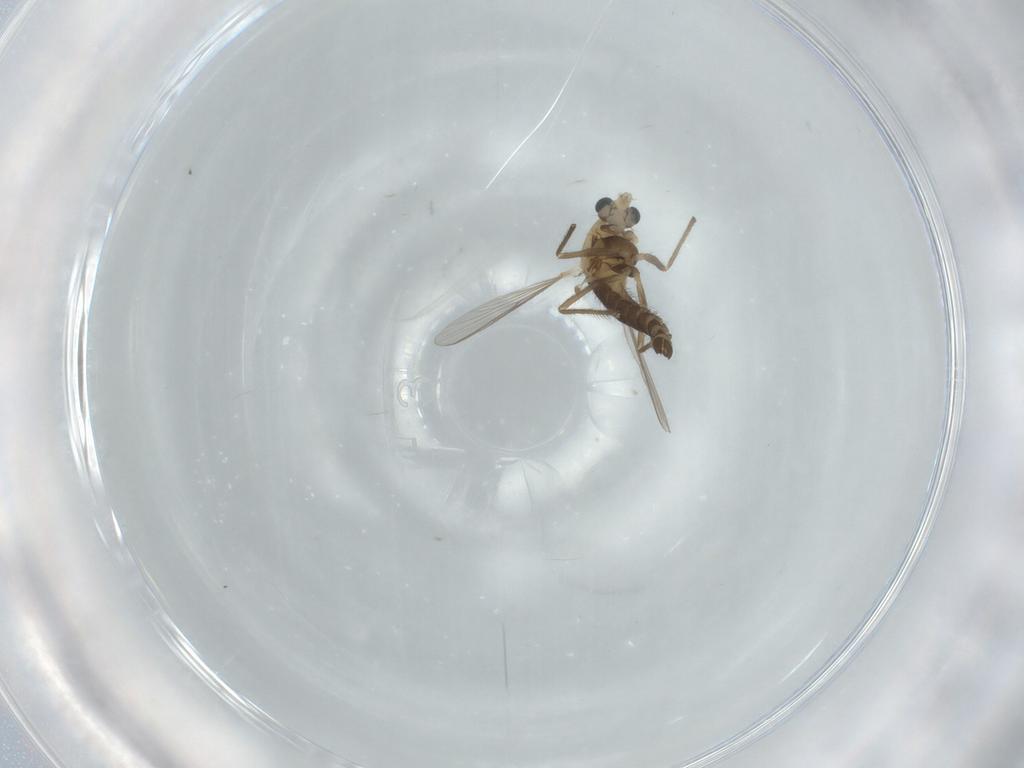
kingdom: Animalia
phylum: Arthropoda
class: Insecta
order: Diptera
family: Chironomidae
